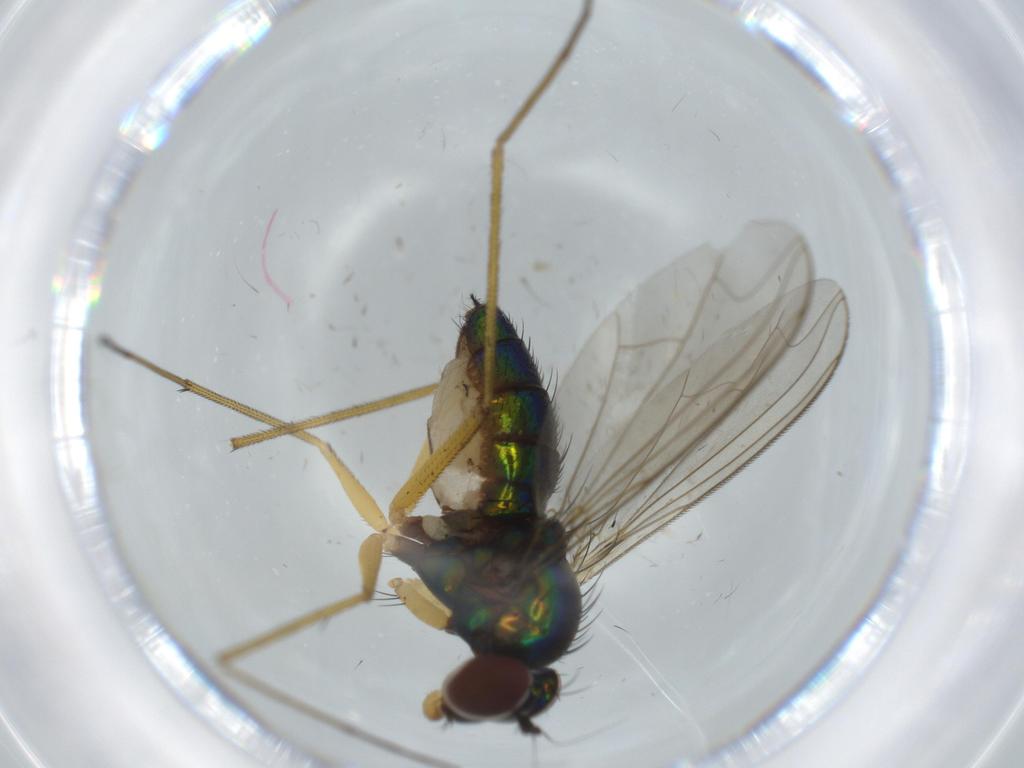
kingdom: Animalia
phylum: Arthropoda
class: Insecta
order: Diptera
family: Dolichopodidae
